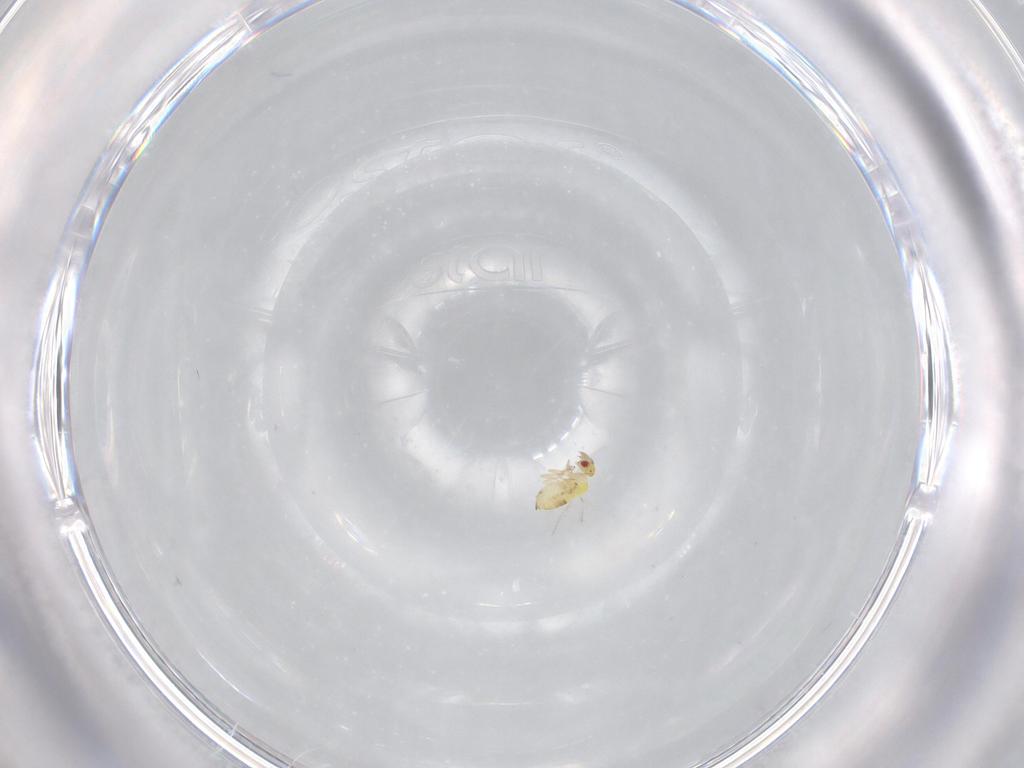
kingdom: Animalia
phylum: Arthropoda
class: Insecta
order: Hymenoptera
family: Trichogrammatidae
